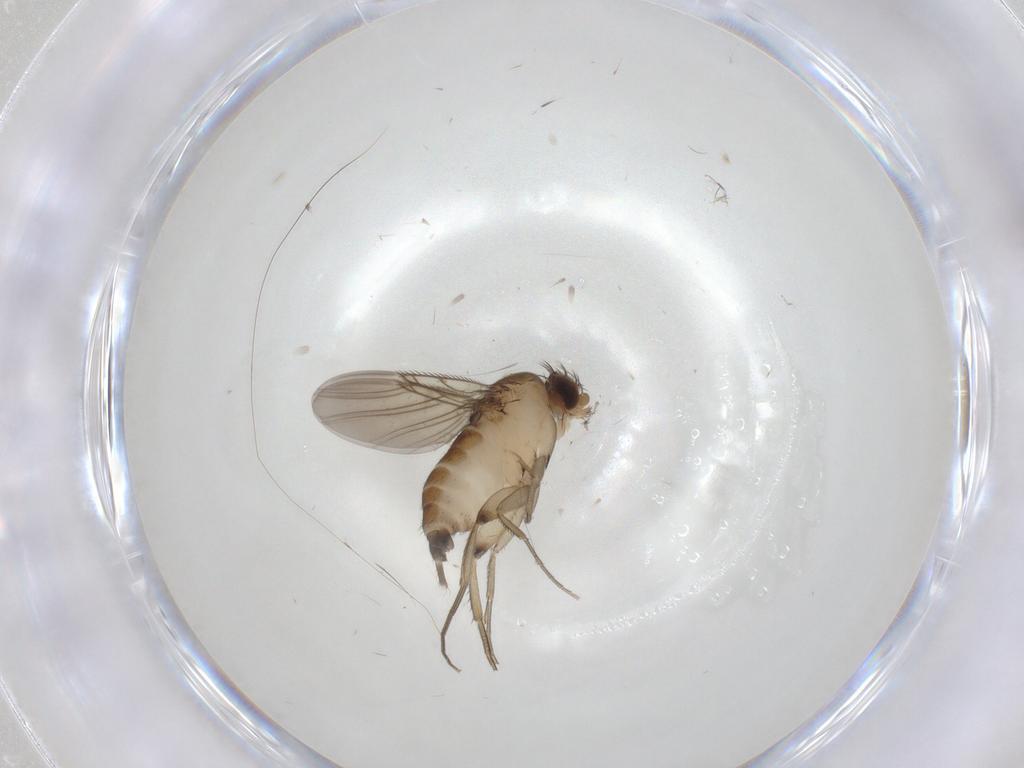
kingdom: Animalia
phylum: Arthropoda
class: Insecta
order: Diptera
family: Phoridae
